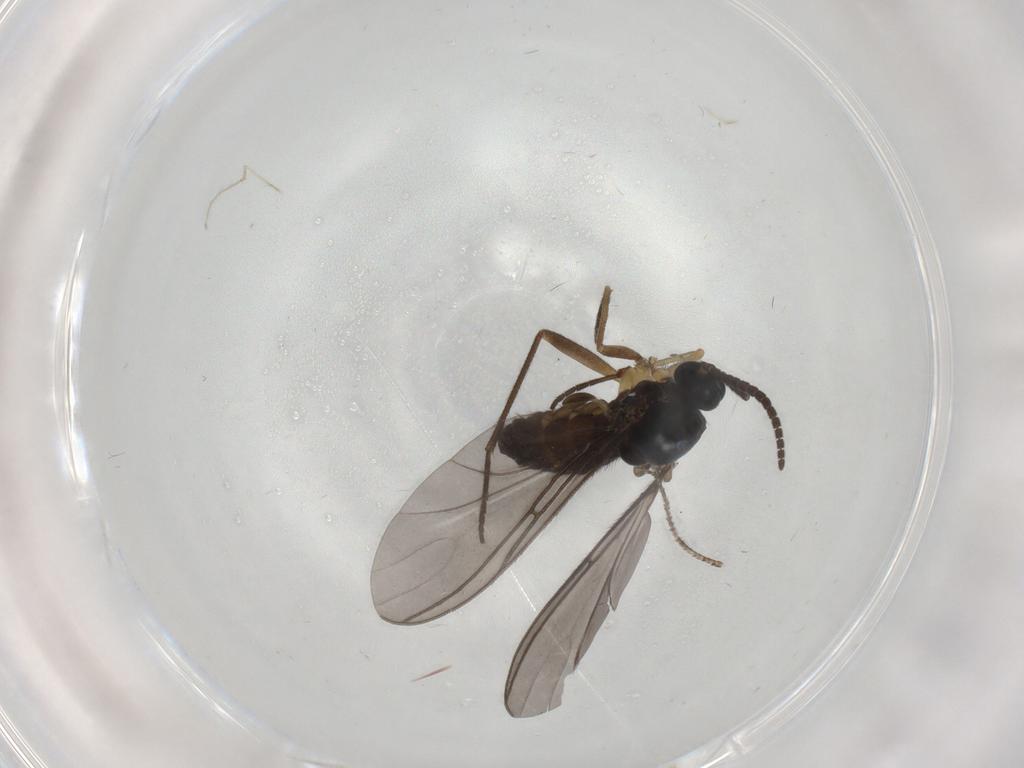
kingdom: Animalia
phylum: Arthropoda
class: Insecta
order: Diptera
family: Sciaridae
